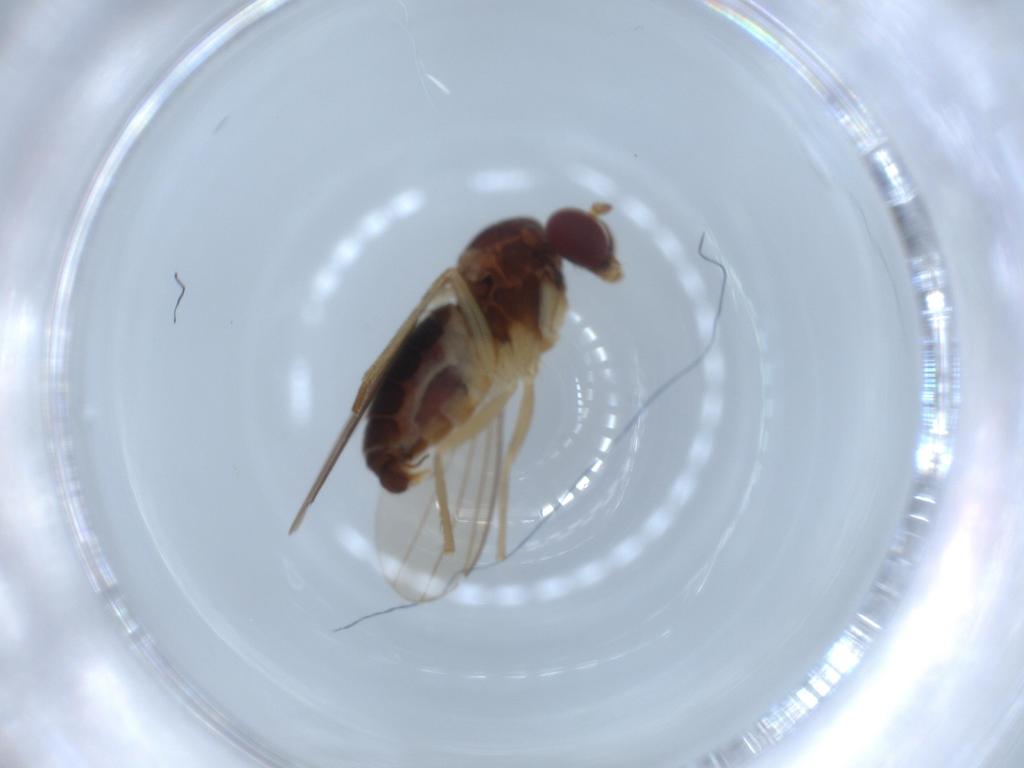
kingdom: Animalia
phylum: Arthropoda
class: Insecta
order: Diptera
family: Dolichopodidae
